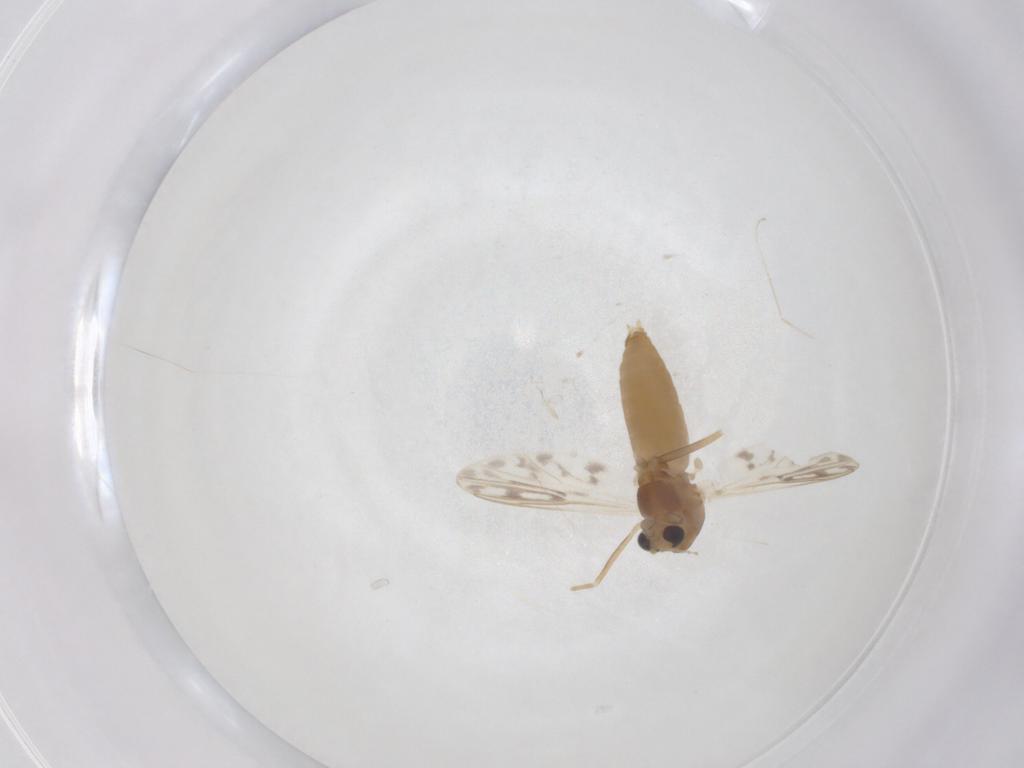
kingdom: Animalia
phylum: Arthropoda
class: Insecta
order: Diptera
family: Chironomidae
